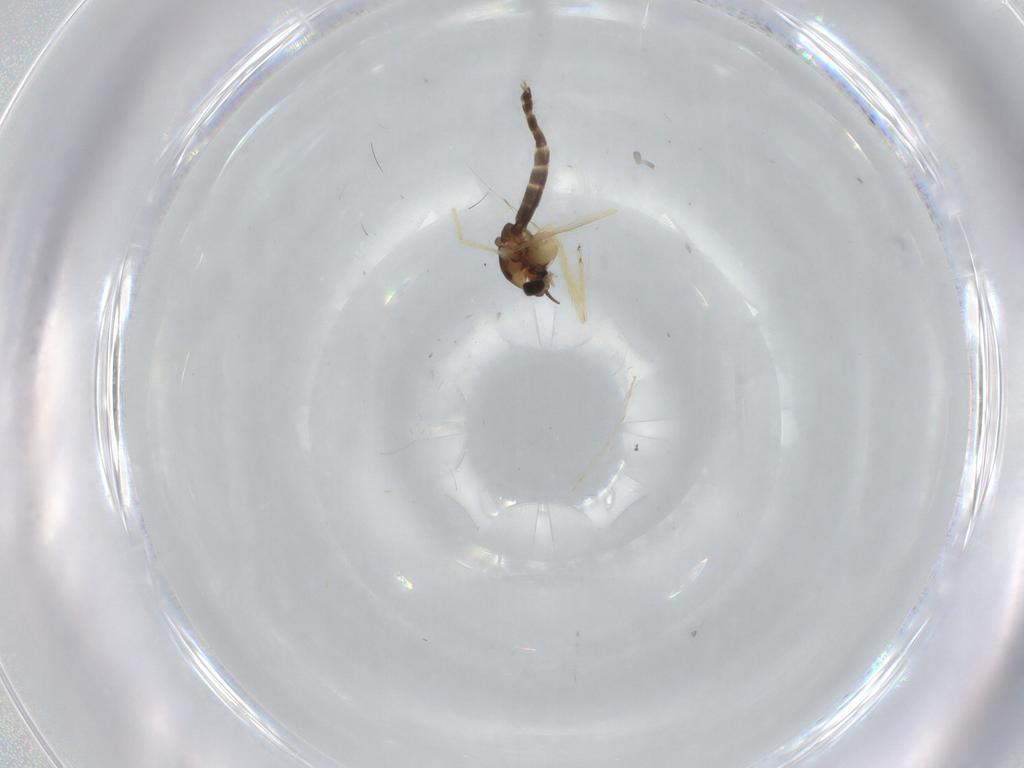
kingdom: Animalia
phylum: Arthropoda
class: Insecta
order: Diptera
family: Chironomidae
